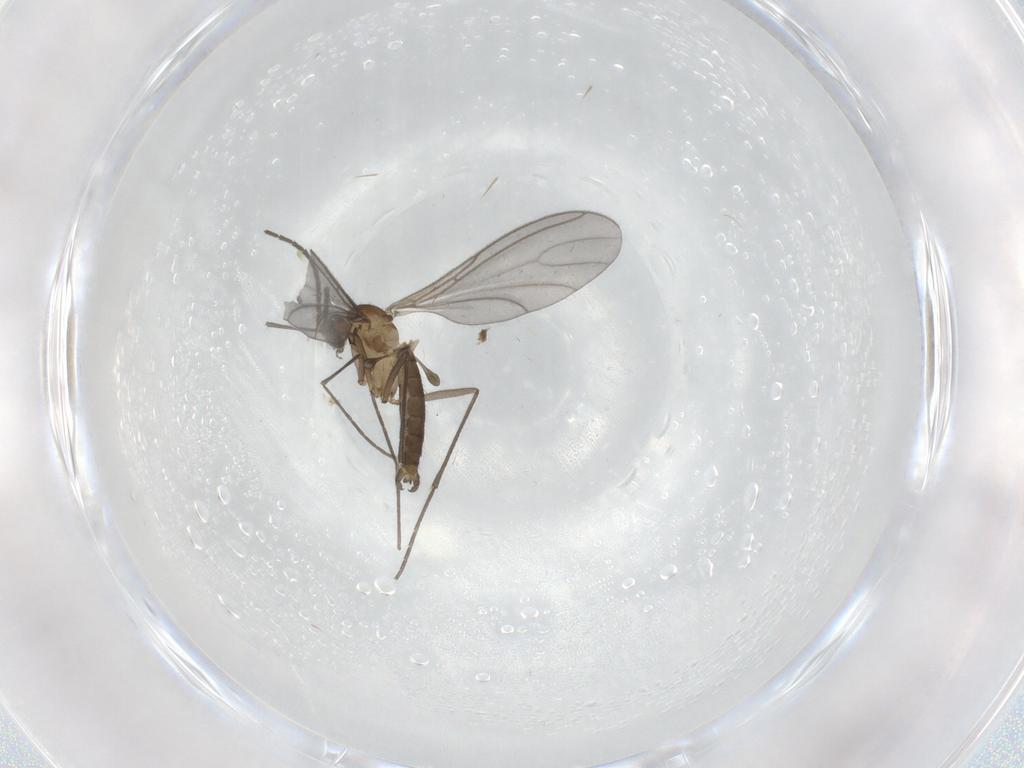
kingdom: Animalia
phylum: Arthropoda
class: Insecta
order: Diptera
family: Sciaridae
